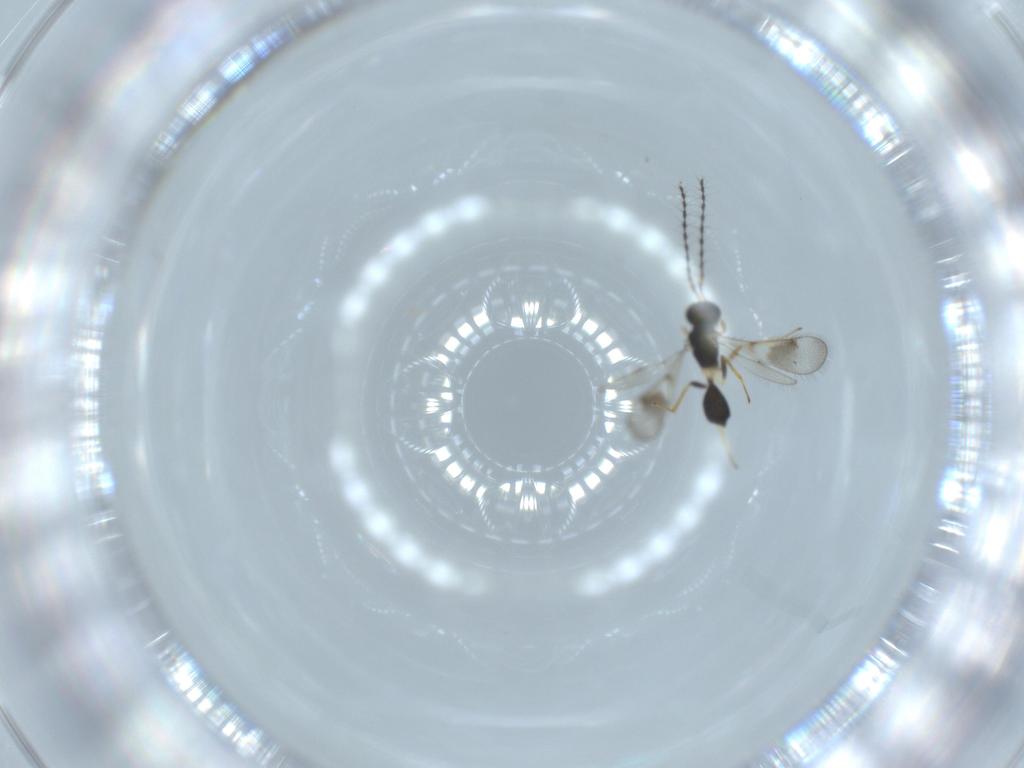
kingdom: Animalia
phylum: Arthropoda
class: Insecta
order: Hymenoptera
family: Diparidae
